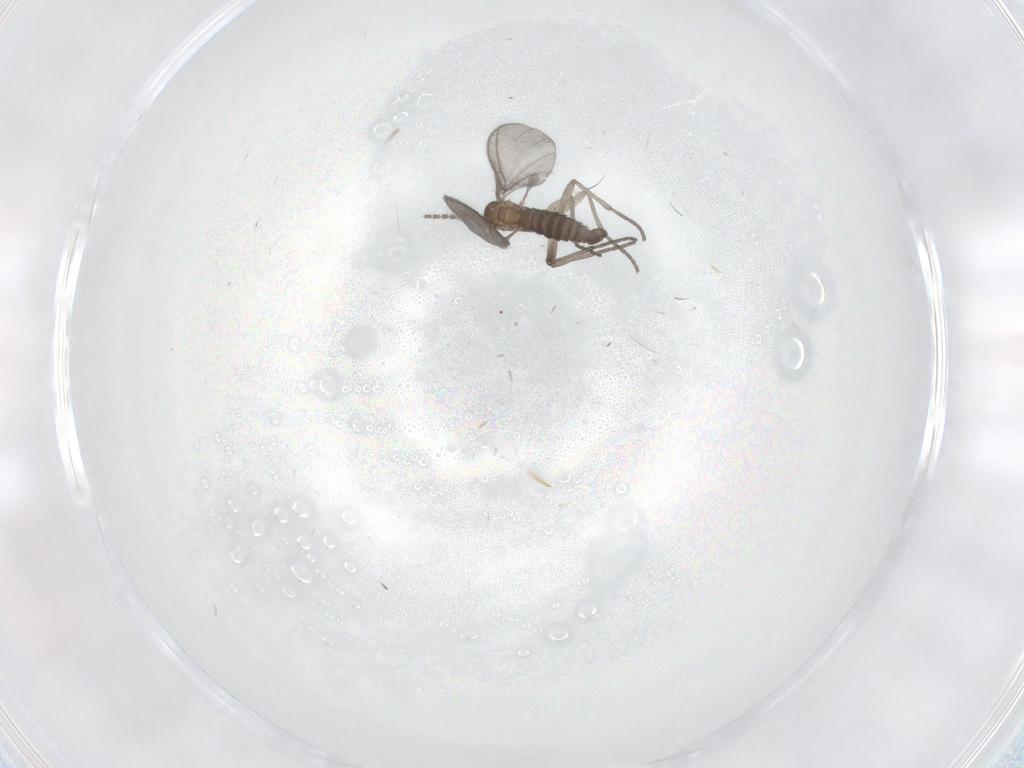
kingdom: Animalia
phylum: Arthropoda
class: Insecta
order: Diptera
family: Sciaridae
